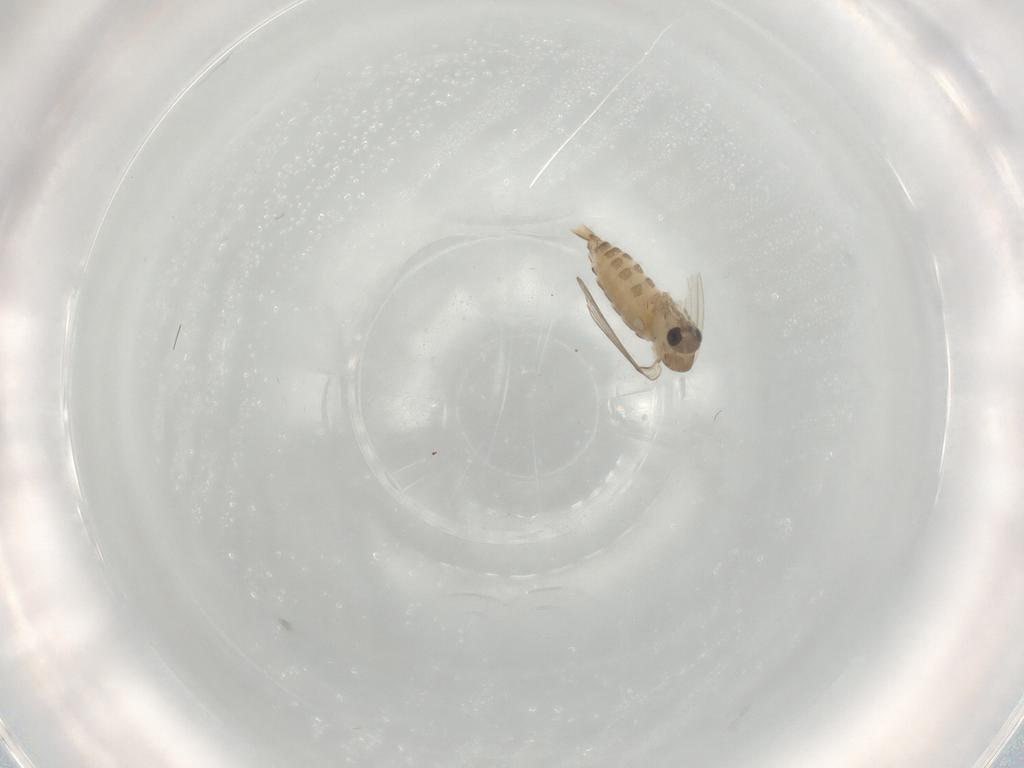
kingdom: Animalia
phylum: Arthropoda
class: Insecta
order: Diptera
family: Psychodidae
